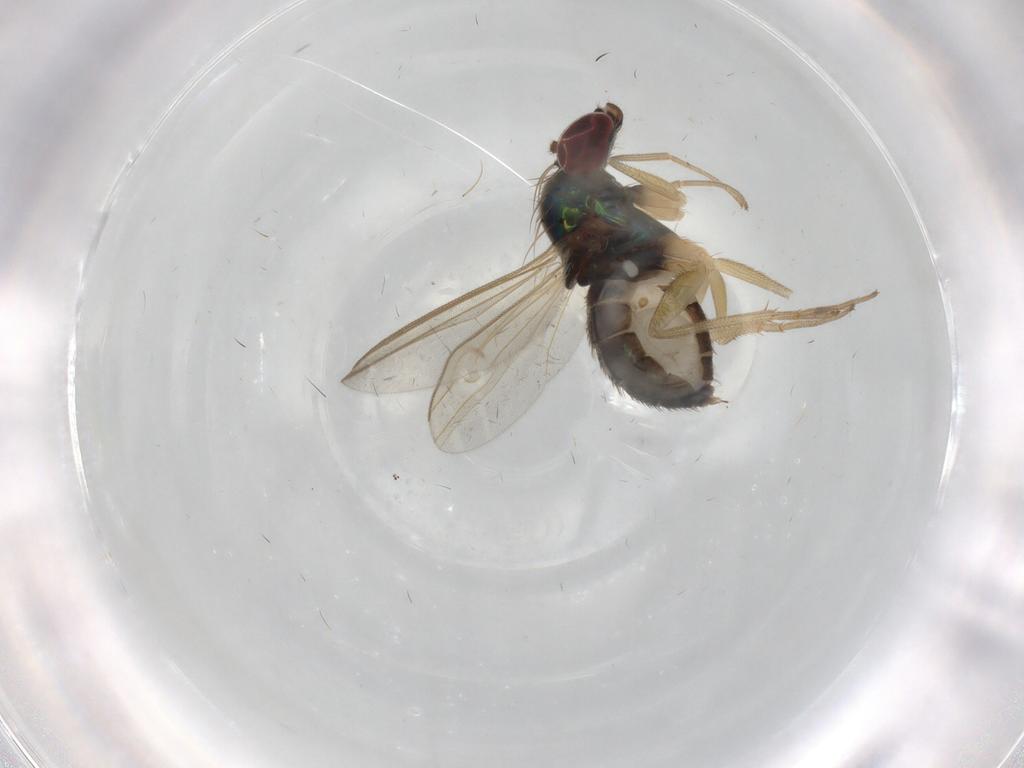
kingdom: Animalia
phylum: Arthropoda
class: Insecta
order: Diptera
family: Dolichopodidae
